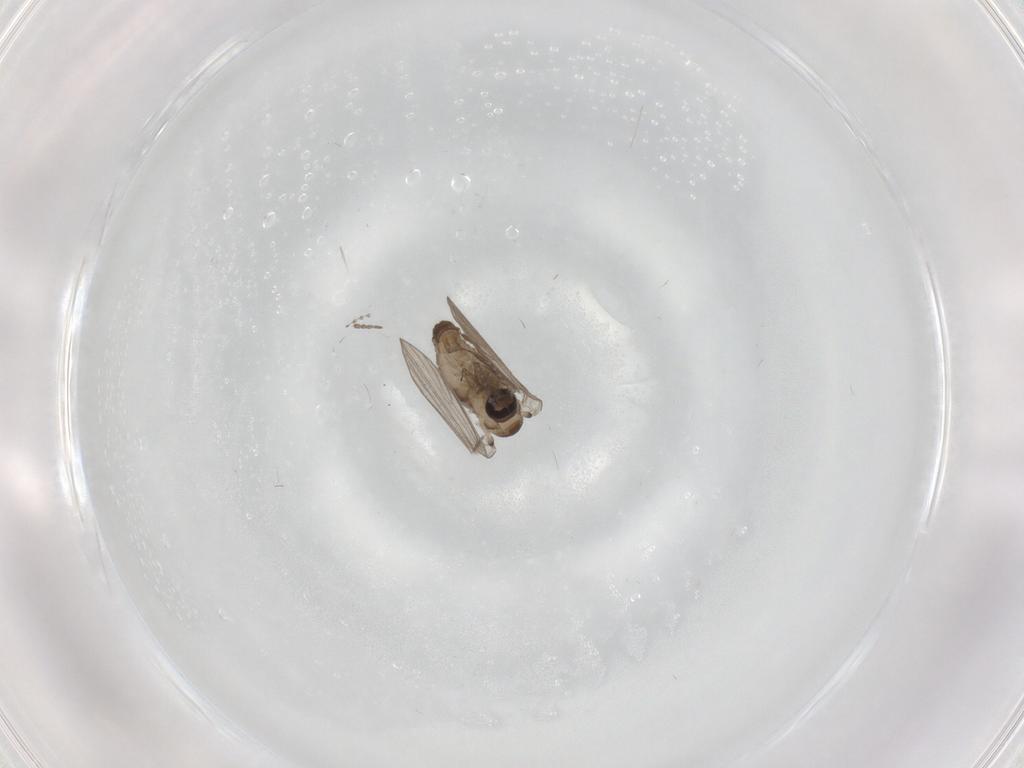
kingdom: Animalia
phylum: Arthropoda
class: Insecta
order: Diptera
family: Psychodidae
